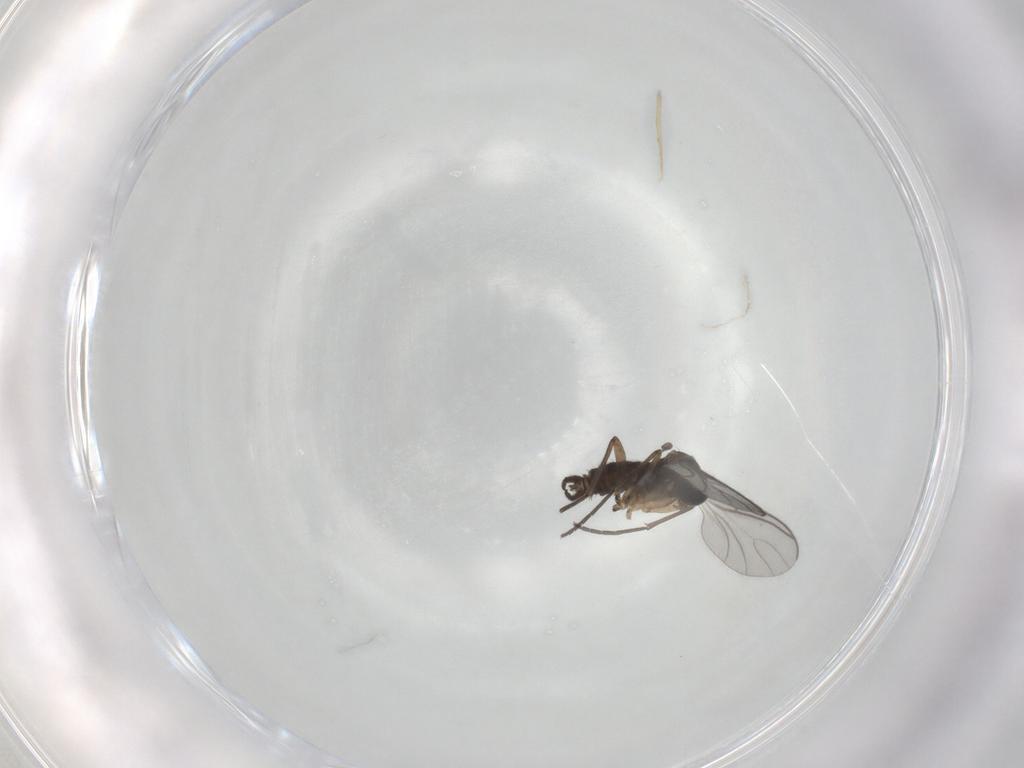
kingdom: Animalia
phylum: Arthropoda
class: Insecta
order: Diptera
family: Sciaridae
